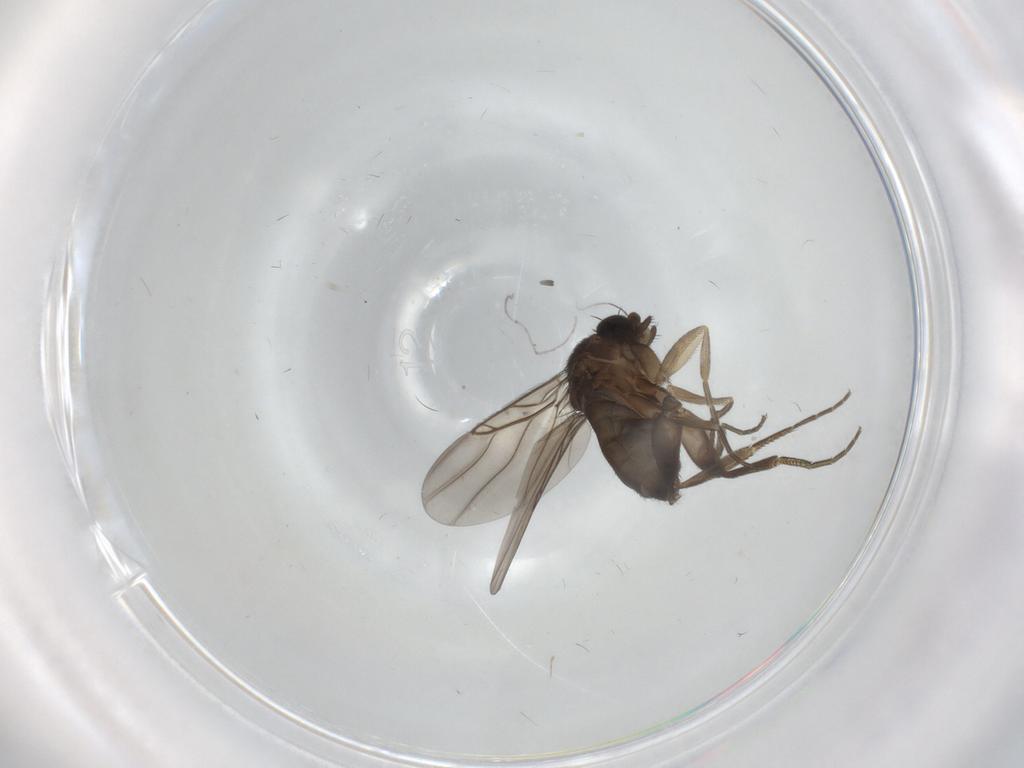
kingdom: Animalia
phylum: Arthropoda
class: Insecta
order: Diptera
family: Phoridae
